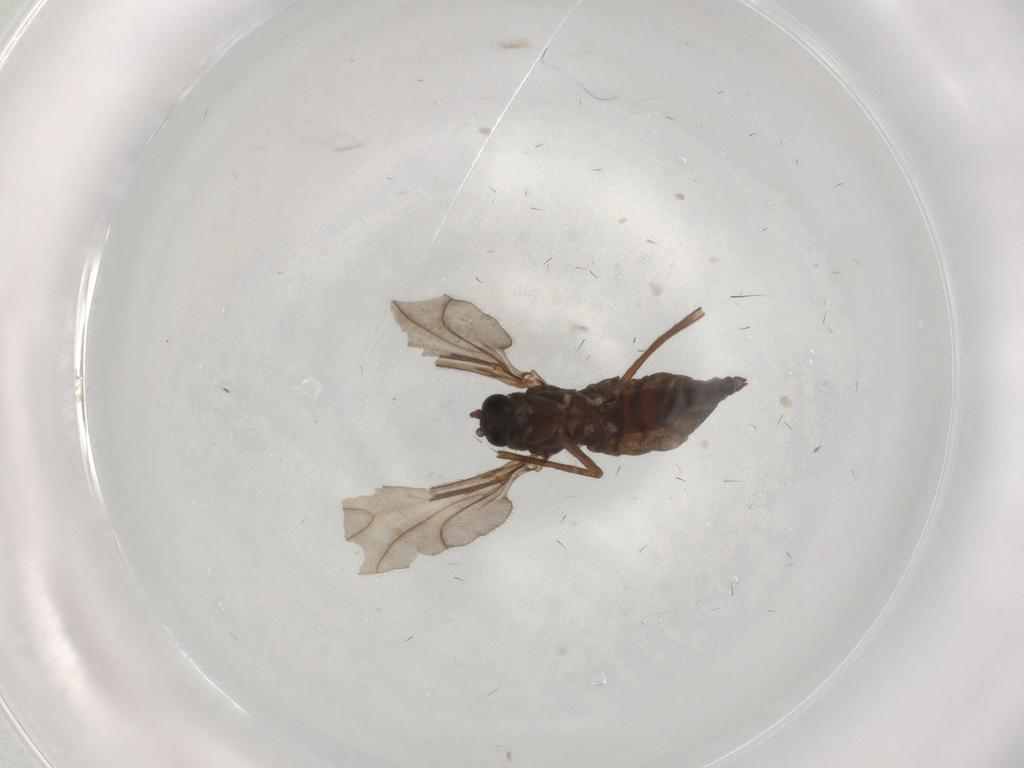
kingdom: Animalia
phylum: Arthropoda
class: Insecta
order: Diptera
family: Sciaridae
